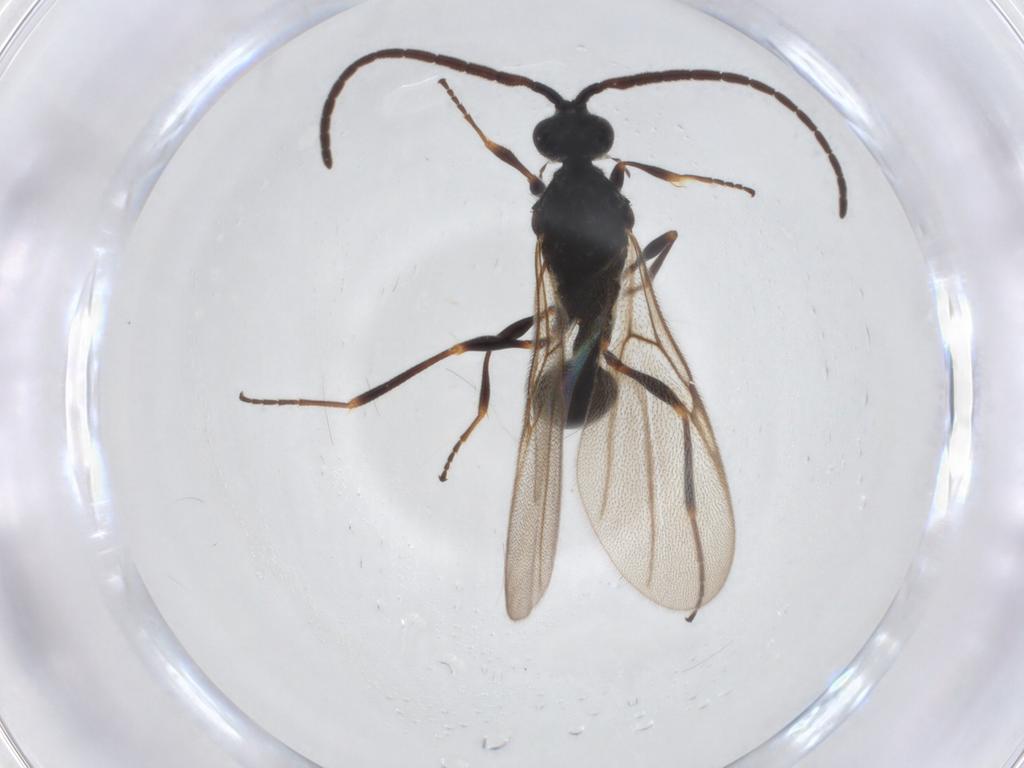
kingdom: Animalia
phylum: Arthropoda
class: Insecta
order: Hymenoptera
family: Diapriidae
